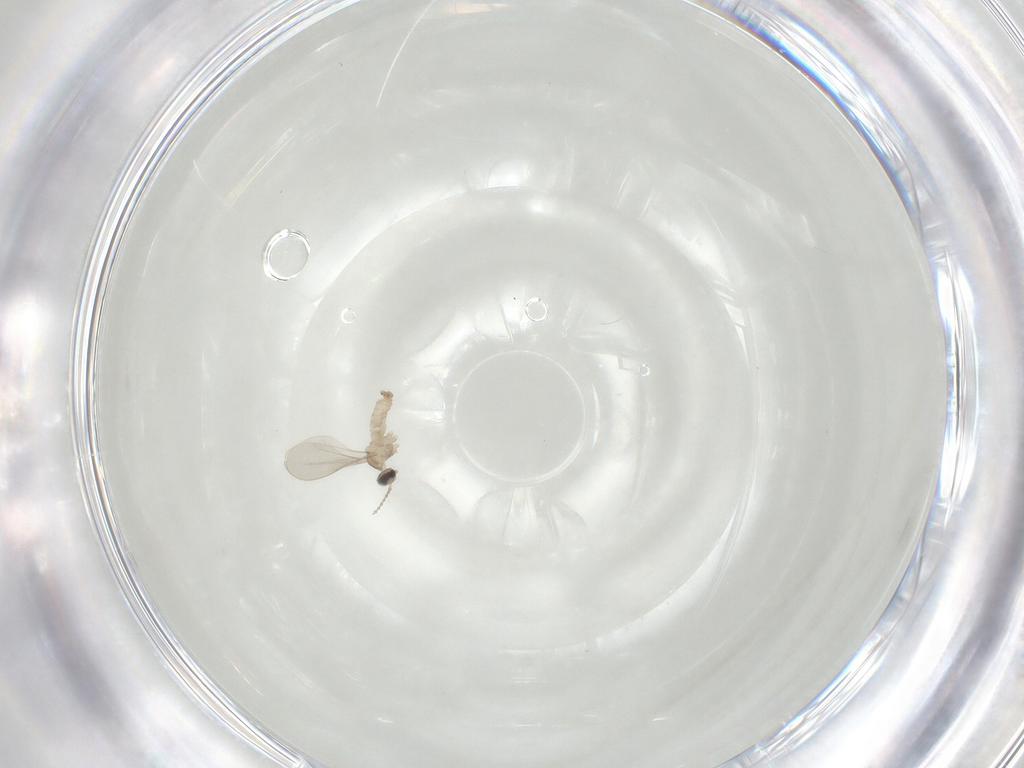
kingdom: Animalia
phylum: Arthropoda
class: Insecta
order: Diptera
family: Cecidomyiidae
